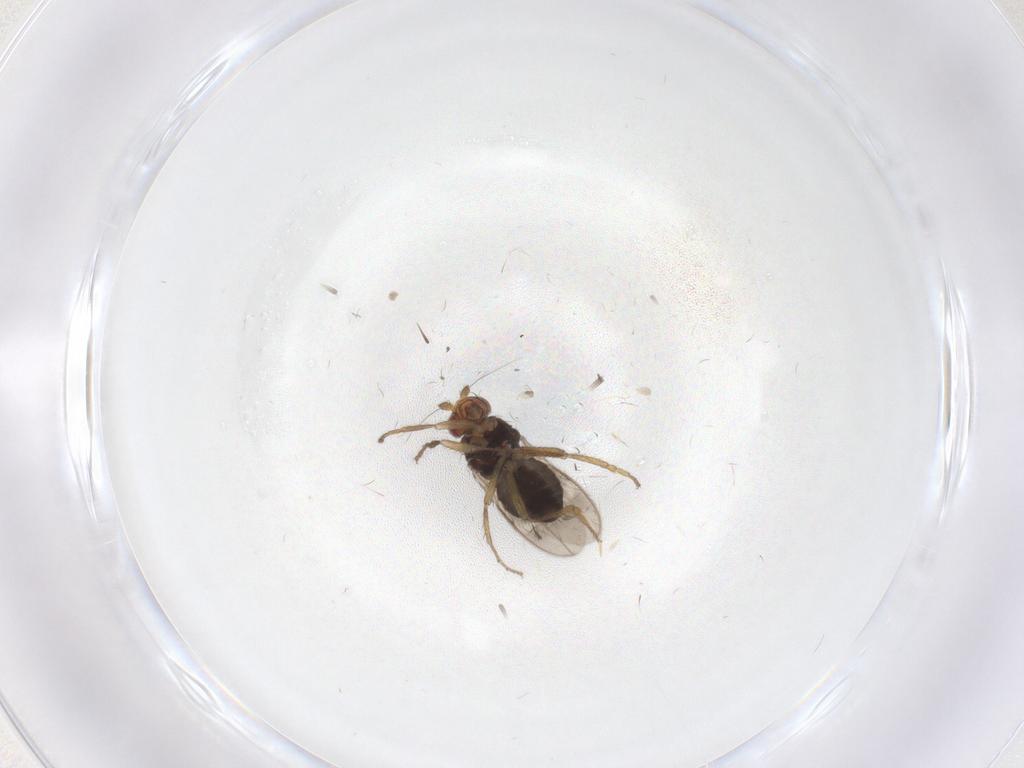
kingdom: Animalia
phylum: Arthropoda
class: Insecta
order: Diptera
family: Sphaeroceridae
